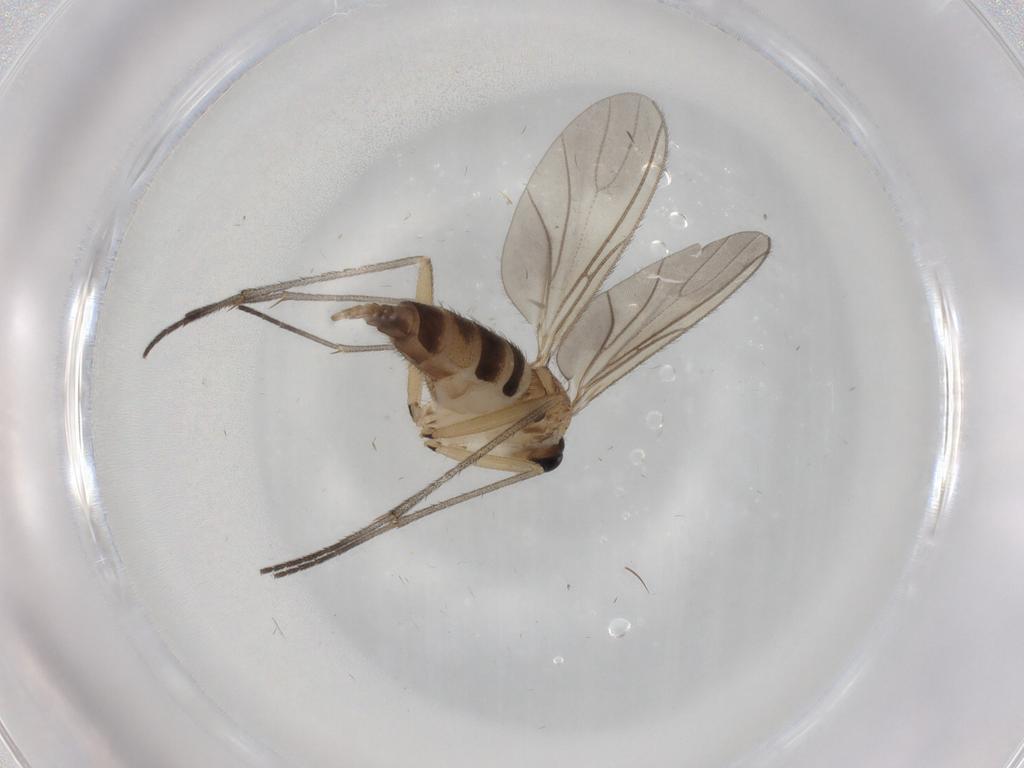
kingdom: Animalia
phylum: Arthropoda
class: Insecta
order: Diptera
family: Stratiomyidae
